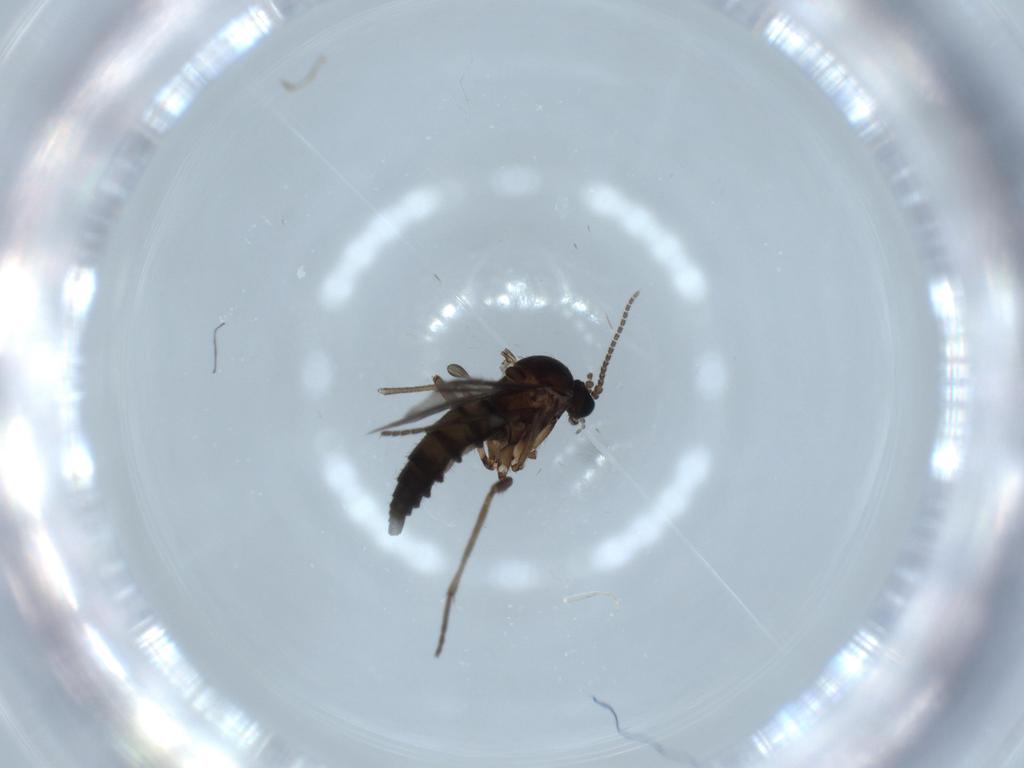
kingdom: Animalia
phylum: Arthropoda
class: Insecta
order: Diptera
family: Sciaridae
